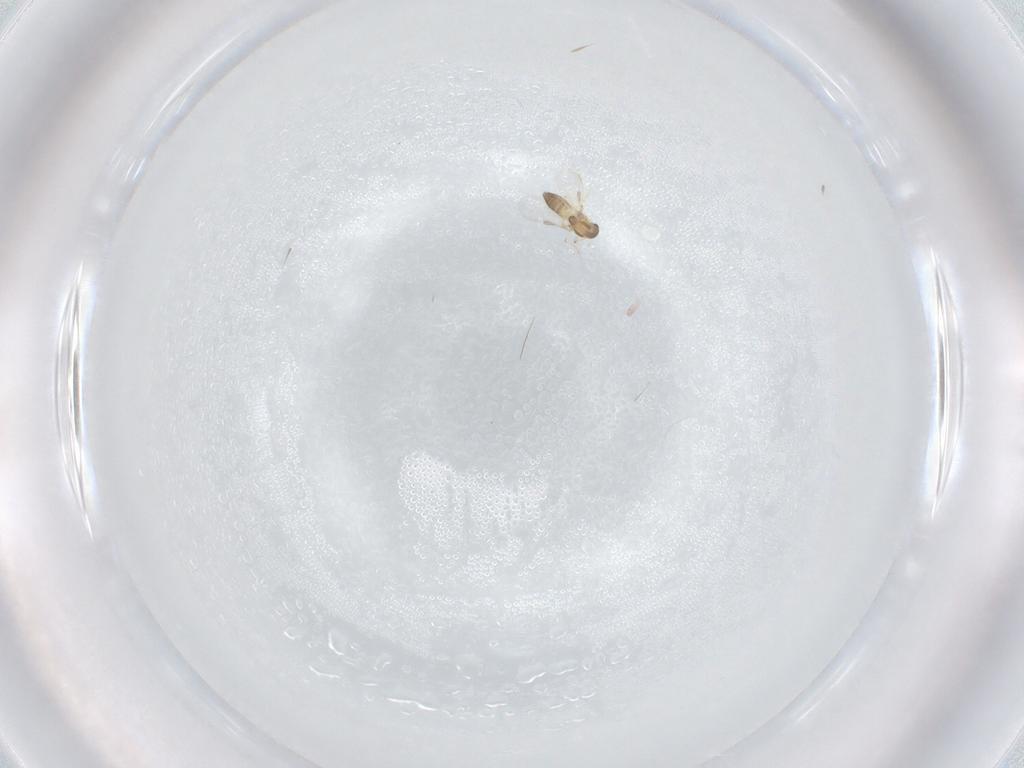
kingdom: Animalia
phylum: Arthropoda
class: Insecta
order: Diptera
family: Chironomidae
